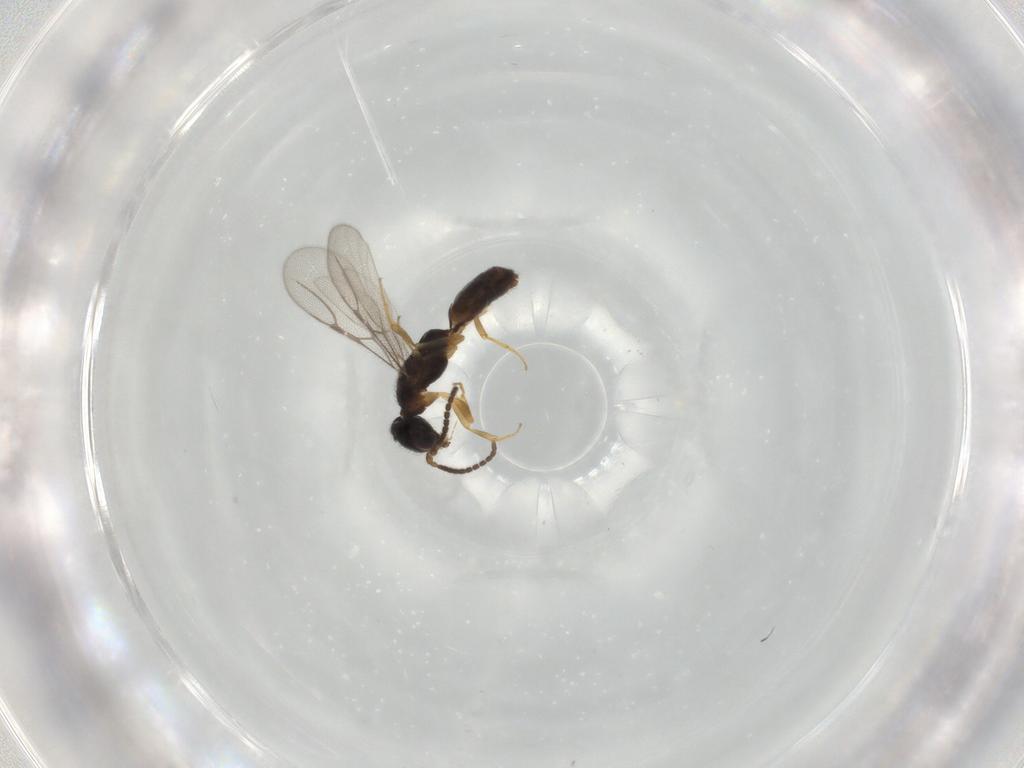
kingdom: Animalia
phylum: Arthropoda
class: Insecta
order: Hymenoptera
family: Bethylidae
